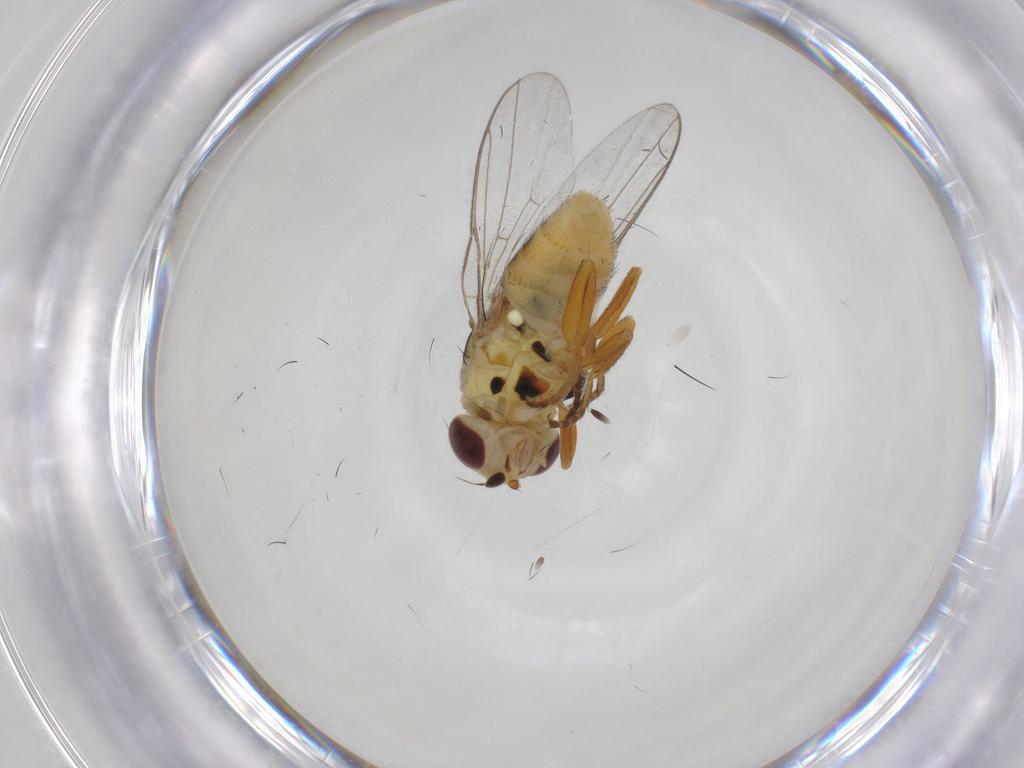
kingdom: Animalia
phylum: Arthropoda
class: Insecta
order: Diptera
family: Chloropidae
